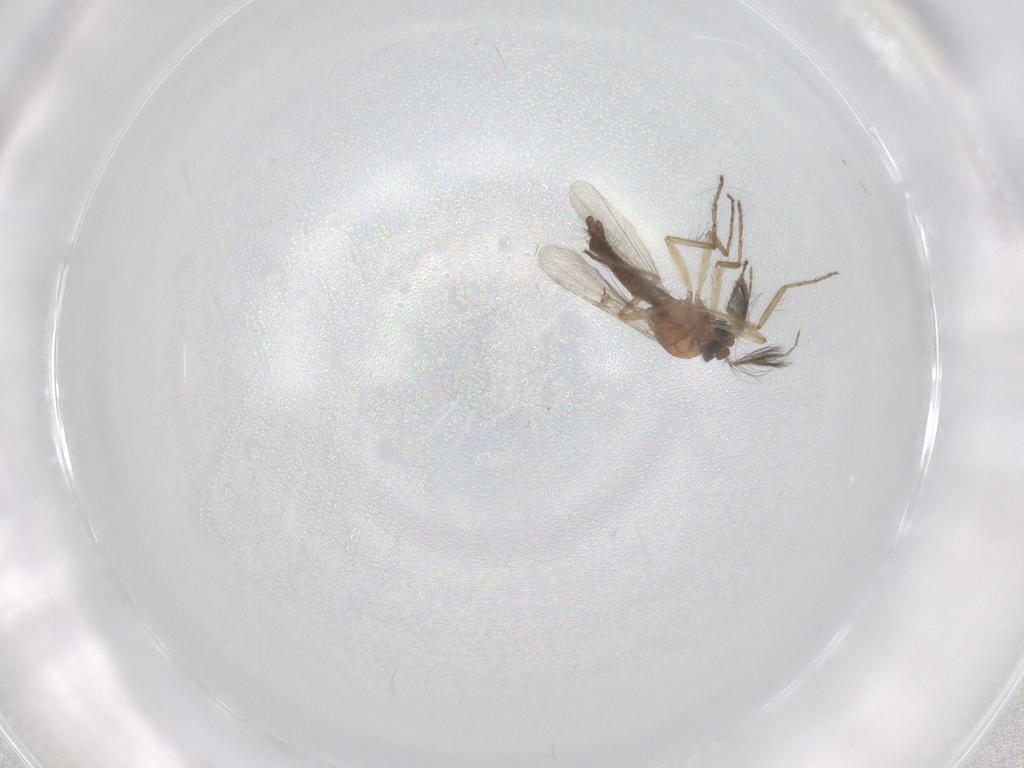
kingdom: Animalia
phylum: Arthropoda
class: Insecta
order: Diptera
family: Ceratopogonidae
